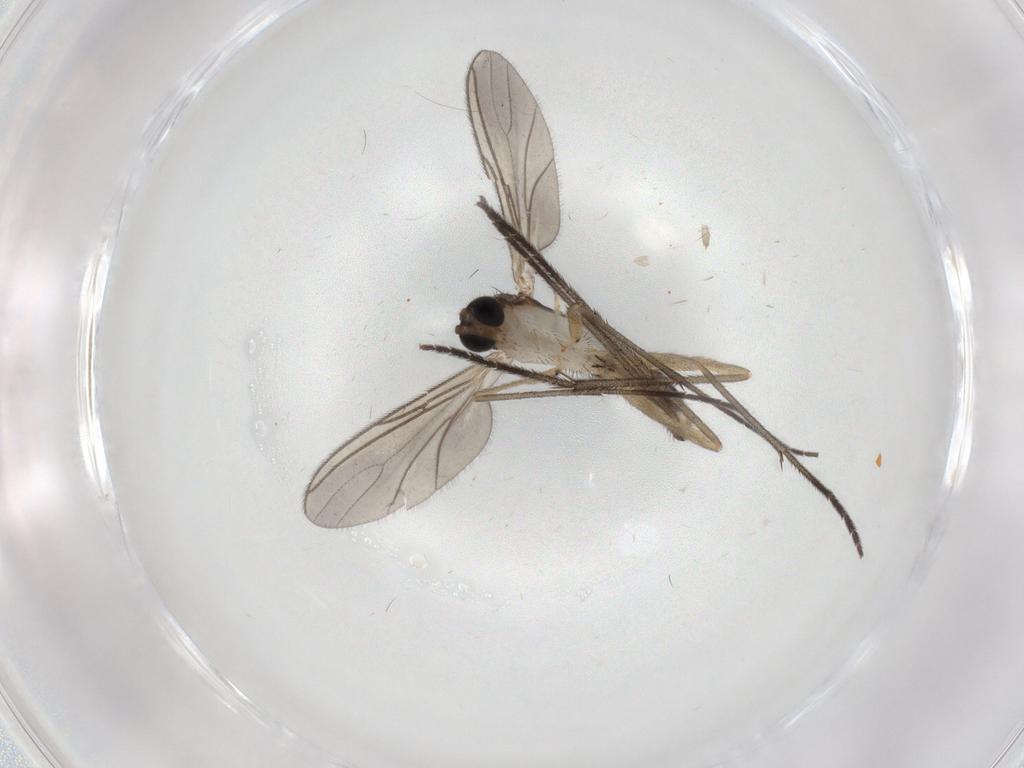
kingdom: Animalia
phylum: Arthropoda
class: Insecta
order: Diptera
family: Sciaridae
